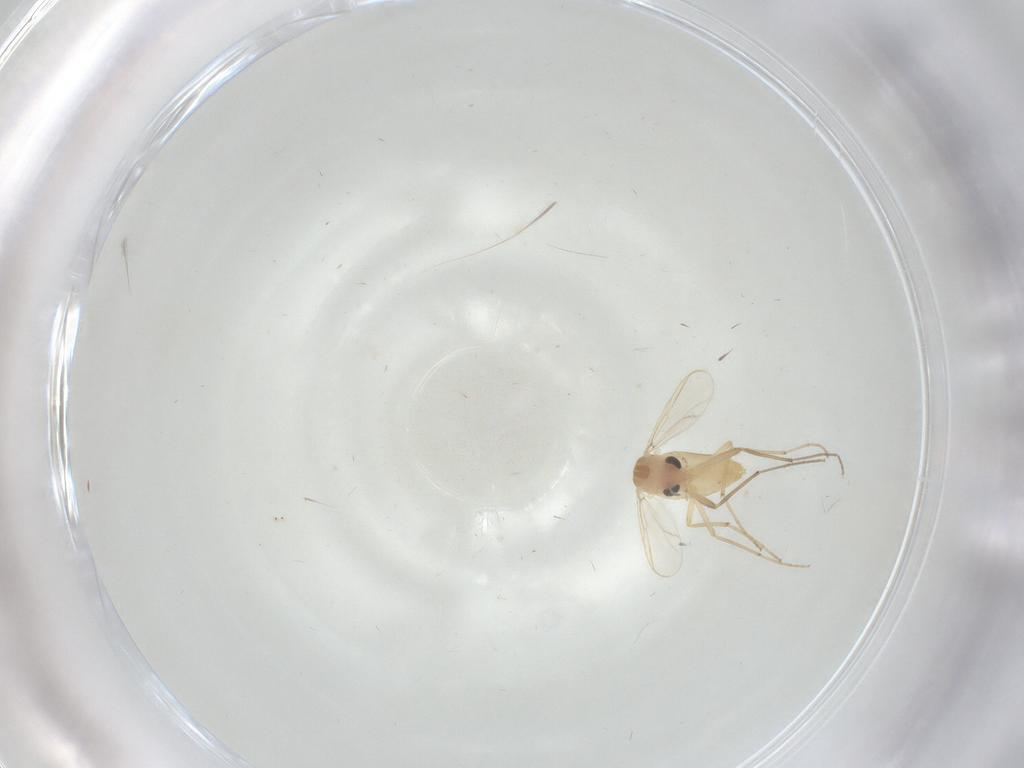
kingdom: Animalia
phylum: Arthropoda
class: Insecta
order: Diptera
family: Chironomidae
